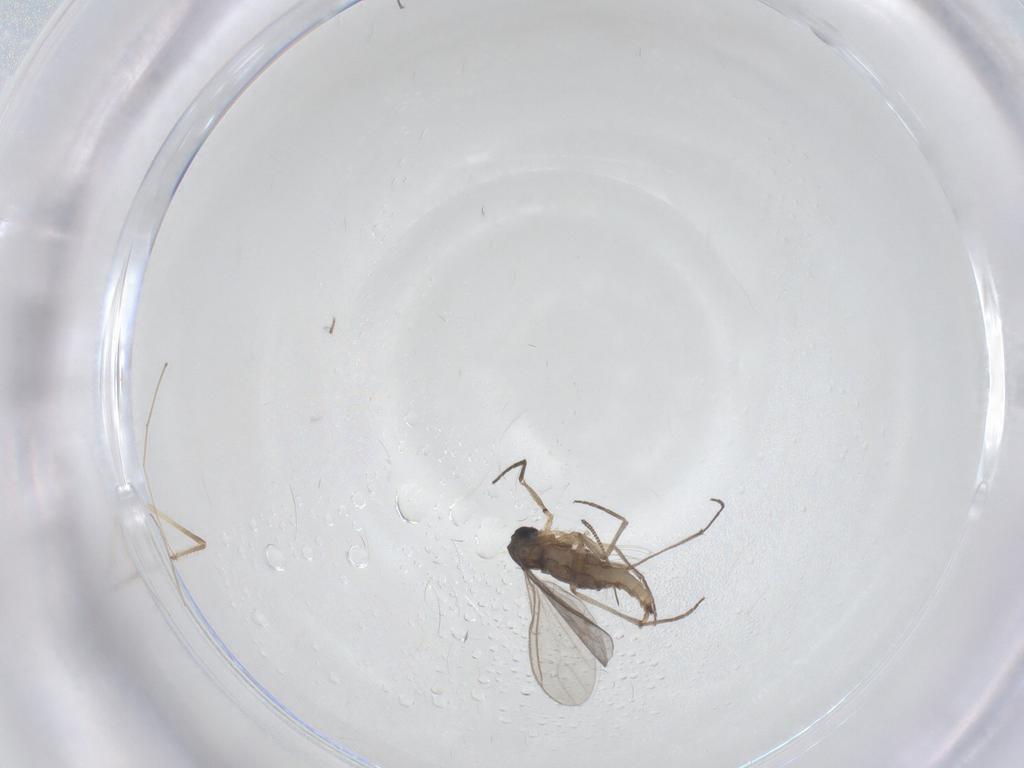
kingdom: Animalia
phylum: Arthropoda
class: Insecta
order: Diptera
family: Sciaridae
